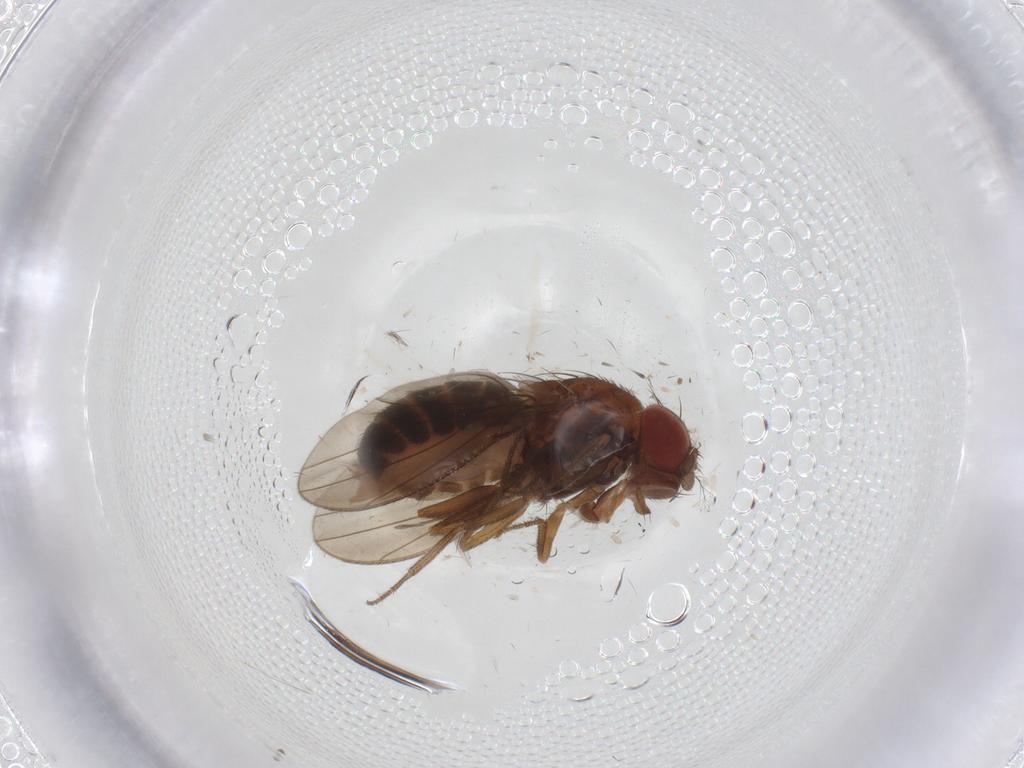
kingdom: Animalia
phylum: Arthropoda
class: Insecta
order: Diptera
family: Drosophilidae
